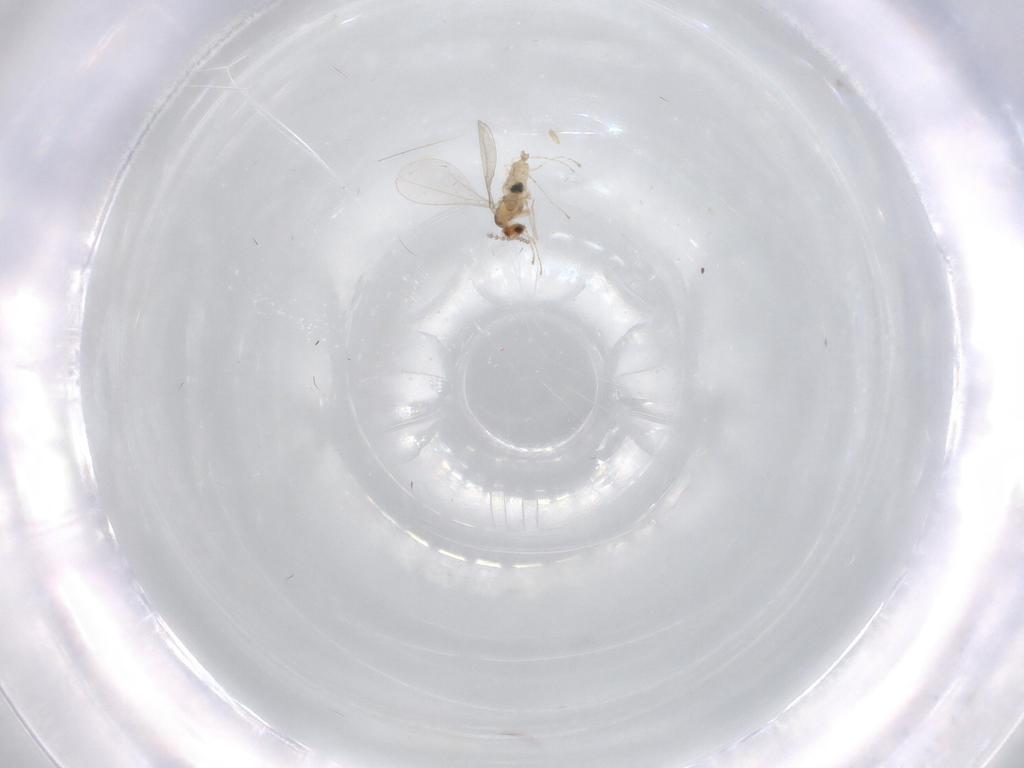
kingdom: Animalia
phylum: Arthropoda
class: Insecta
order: Diptera
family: Cecidomyiidae
